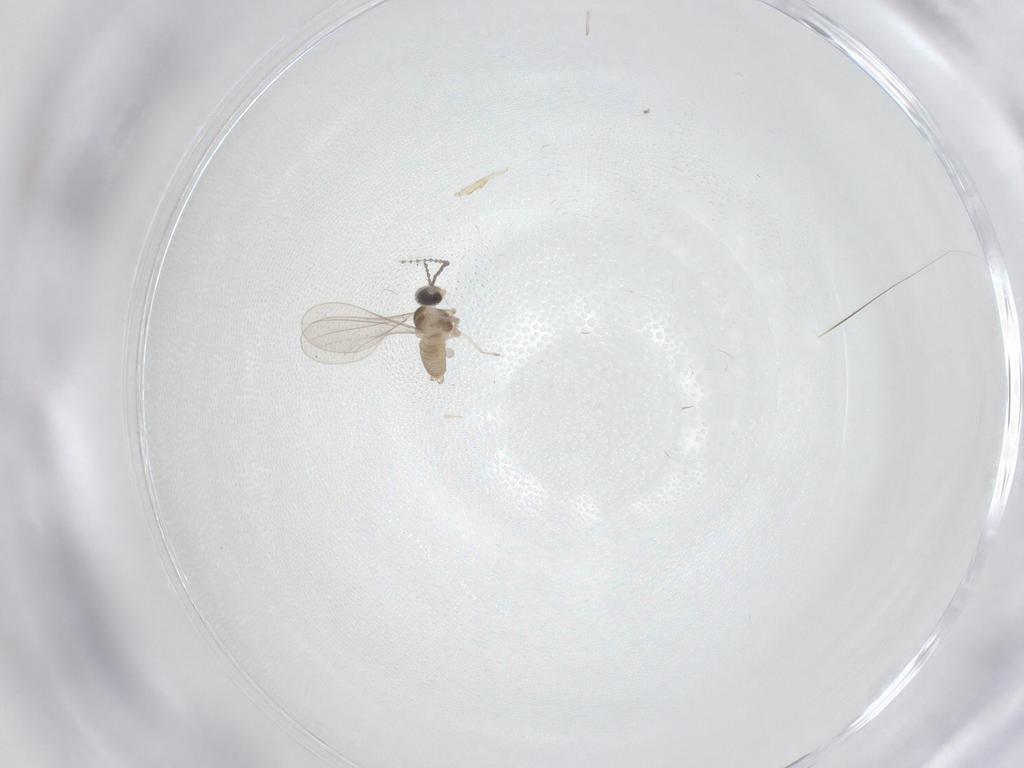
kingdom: Animalia
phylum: Arthropoda
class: Insecta
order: Diptera
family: Cecidomyiidae
